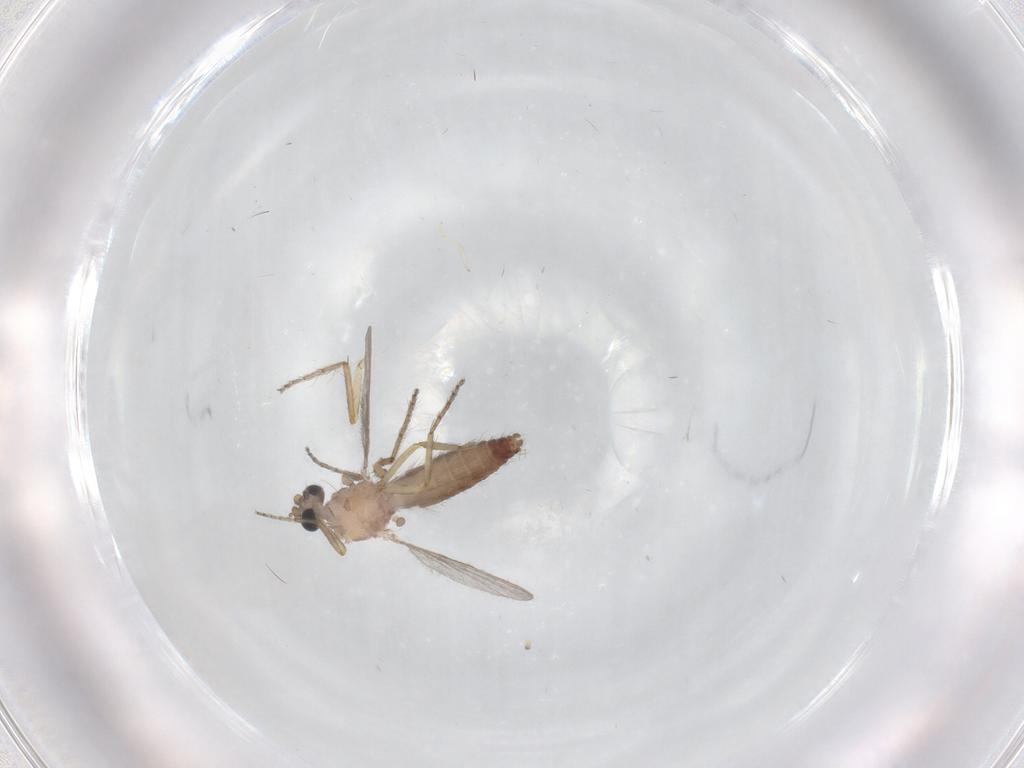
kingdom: Animalia
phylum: Arthropoda
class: Insecta
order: Diptera
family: Ceratopogonidae
